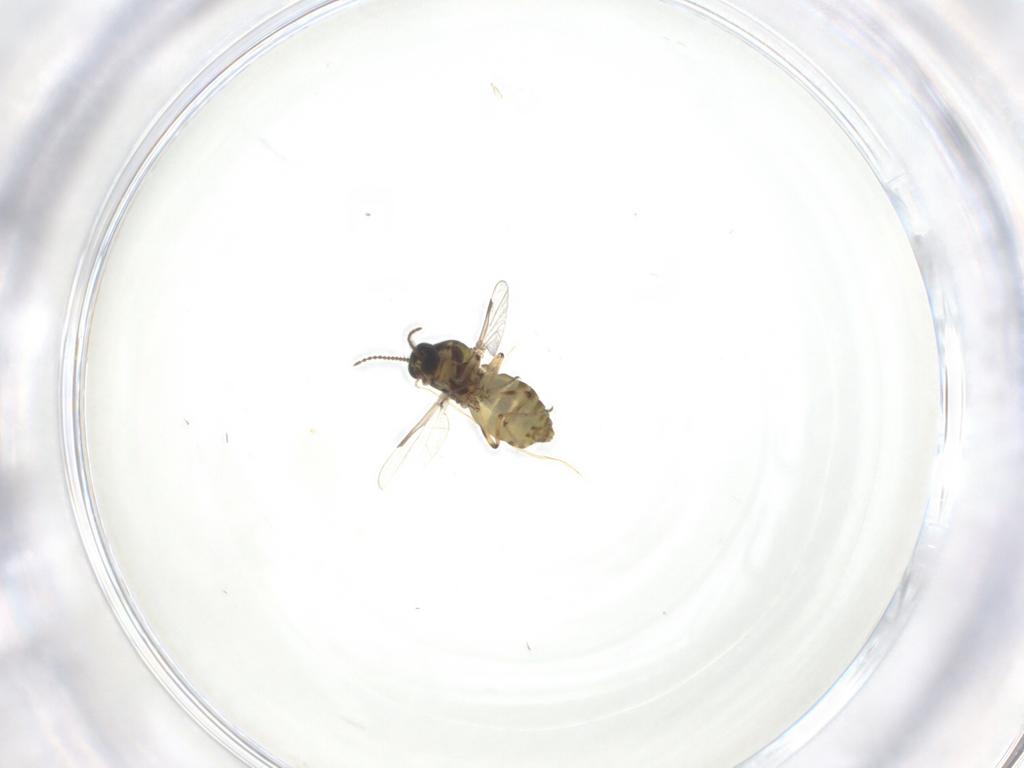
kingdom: Animalia
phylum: Arthropoda
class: Insecta
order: Diptera
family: Ceratopogonidae
